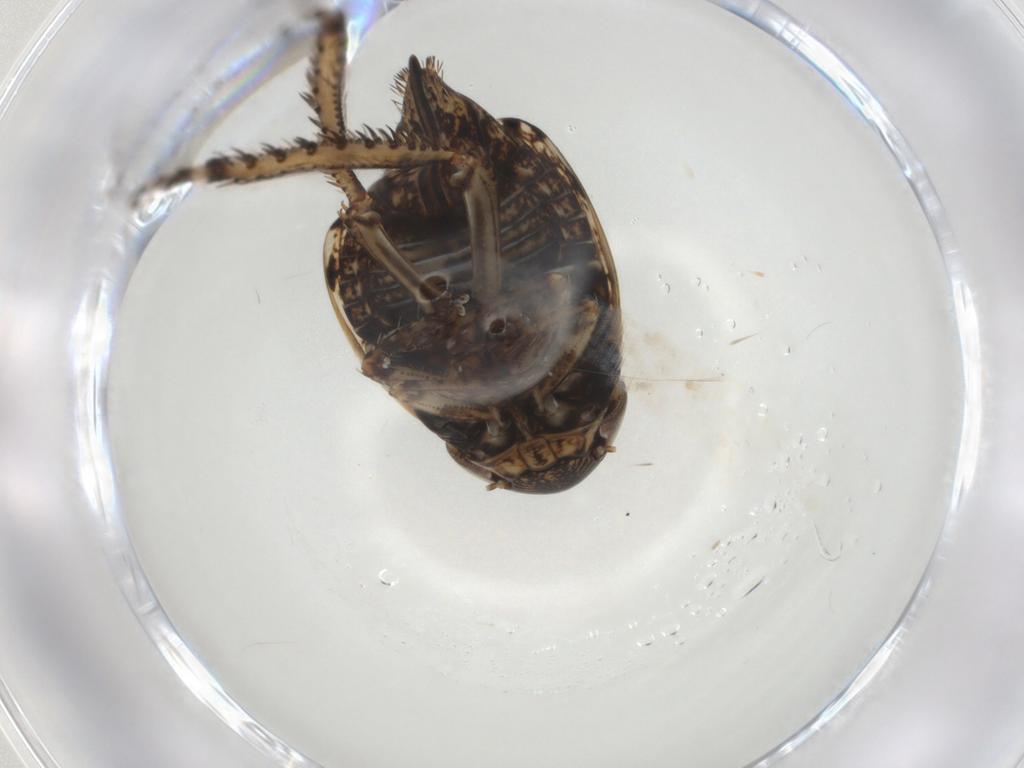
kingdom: Animalia
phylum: Arthropoda
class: Insecta
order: Hemiptera
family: Cicadellidae
